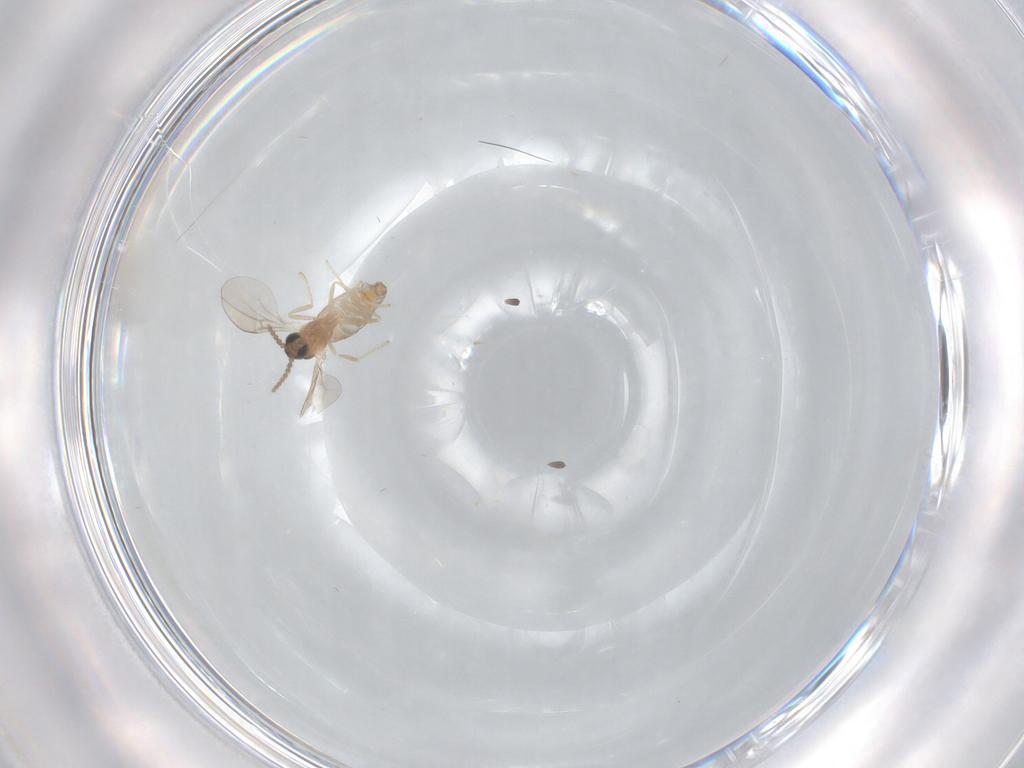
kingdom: Animalia
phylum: Arthropoda
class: Insecta
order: Diptera
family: Cecidomyiidae
